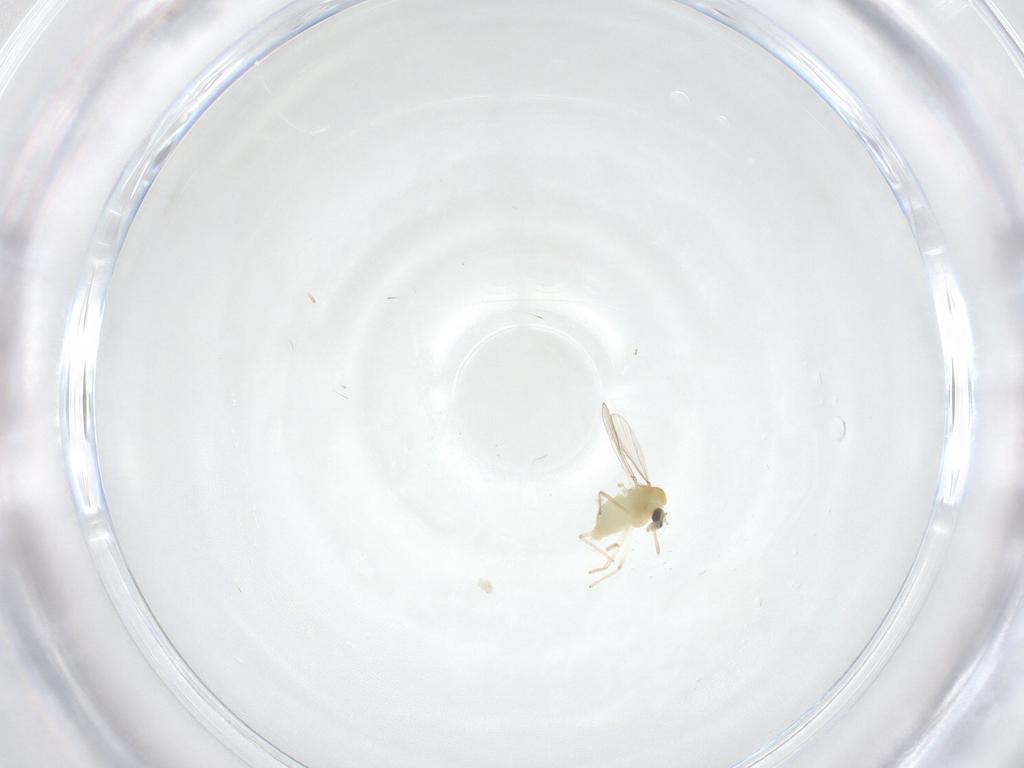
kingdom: Animalia
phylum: Arthropoda
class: Insecta
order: Diptera
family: Chironomidae
